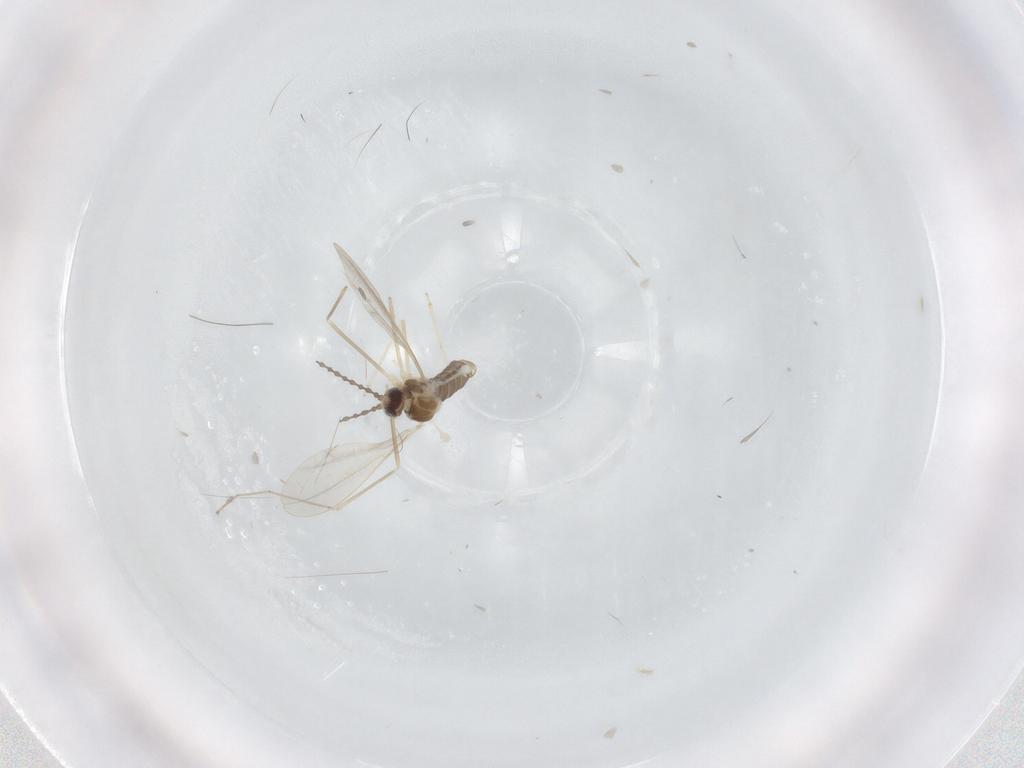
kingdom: Animalia
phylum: Arthropoda
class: Insecta
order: Diptera
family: Cecidomyiidae
